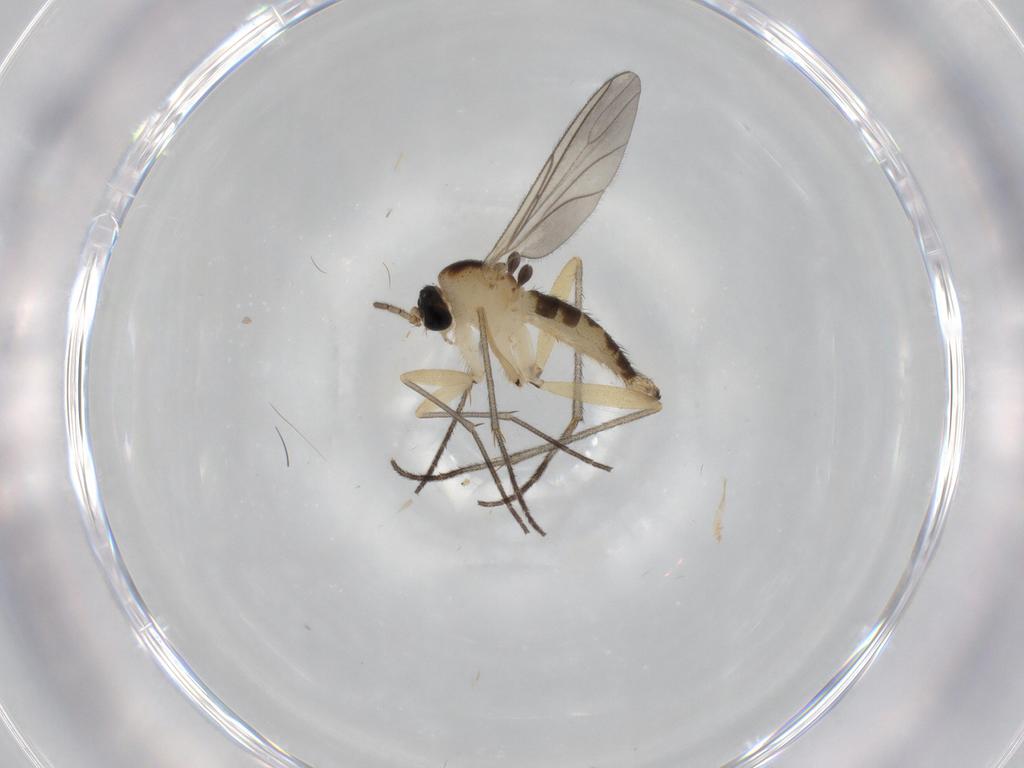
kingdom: Animalia
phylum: Arthropoda
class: Insecta
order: Diptera
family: Sciaridae
